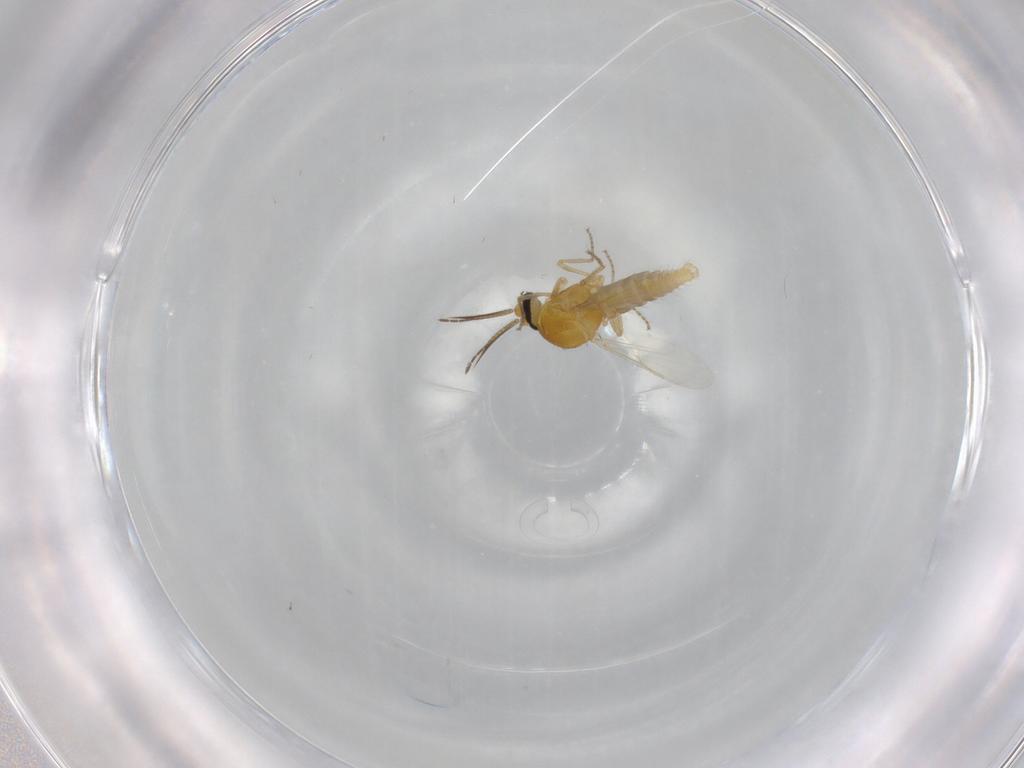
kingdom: Animalia
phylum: Arthropoda
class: Insecta
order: Diptera
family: Ceratopogonidae
